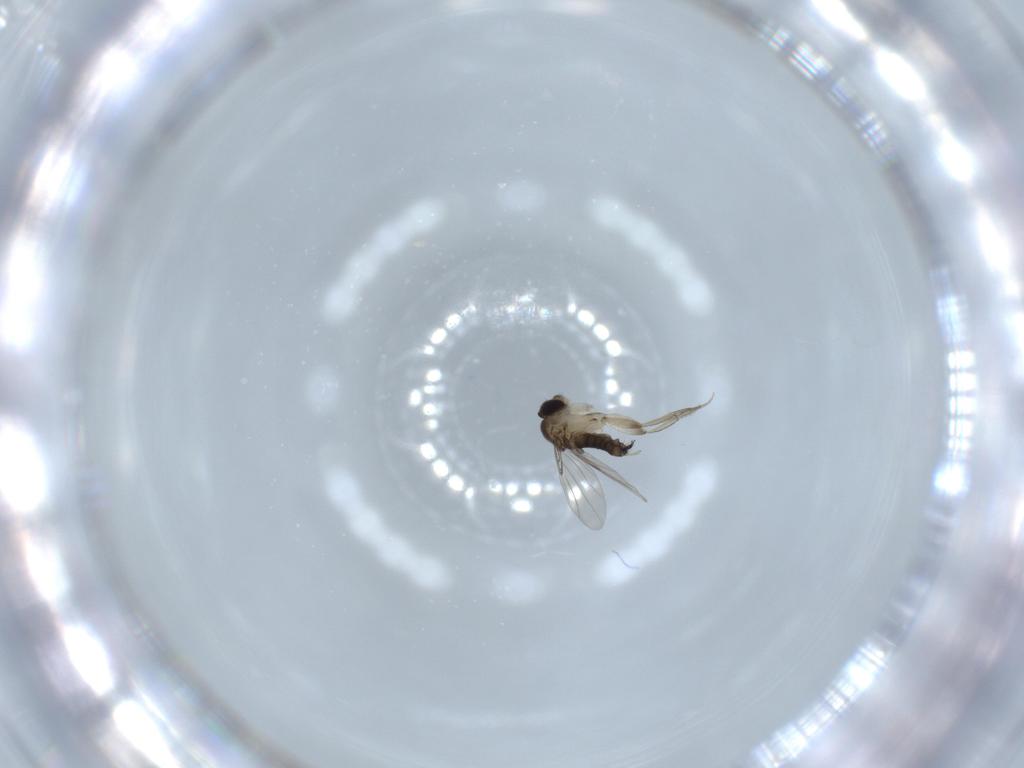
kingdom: Animalia
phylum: Arthropoda
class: Insecta
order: Diptera
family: Phoridae
